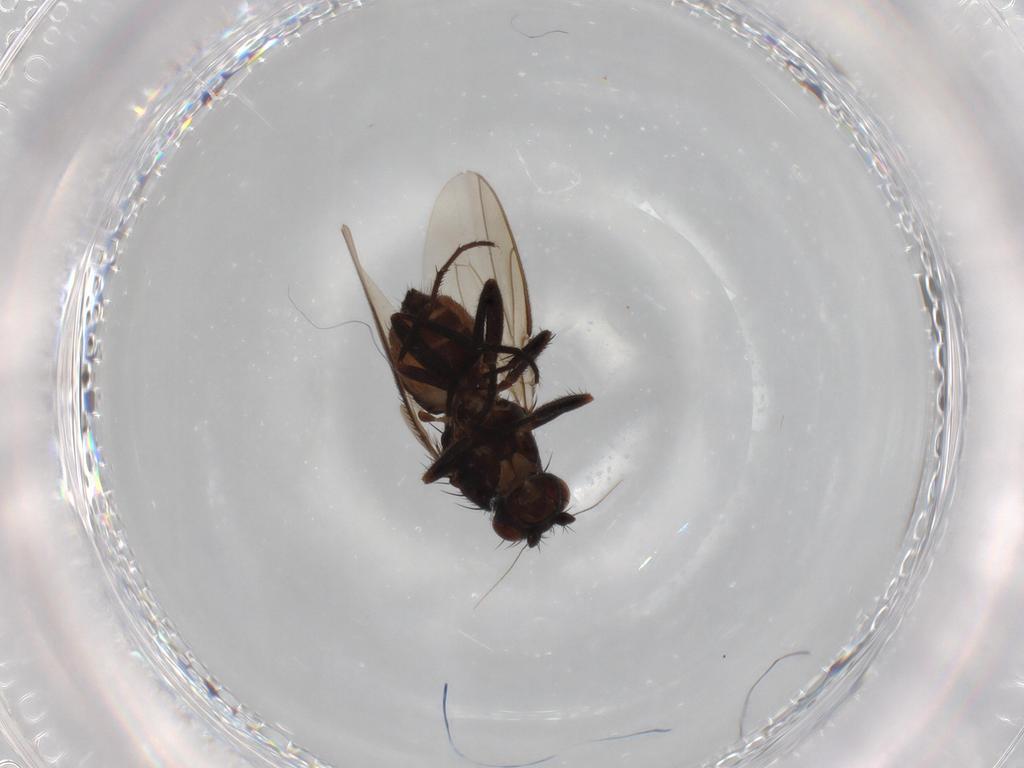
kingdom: Animalia
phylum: Arthropoda
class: Insecta
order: Diptera
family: Sphaeroceridae
